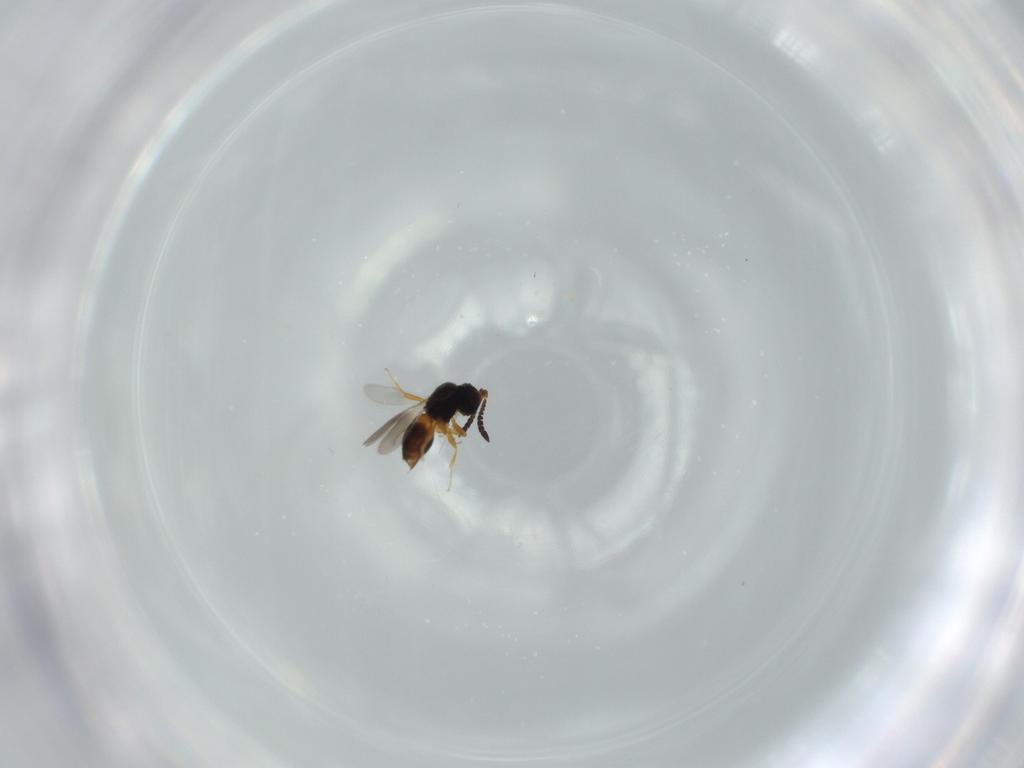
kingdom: Animalia
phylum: Arthropoda
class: Insecta
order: Hymenoptera
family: Aphelinidae
